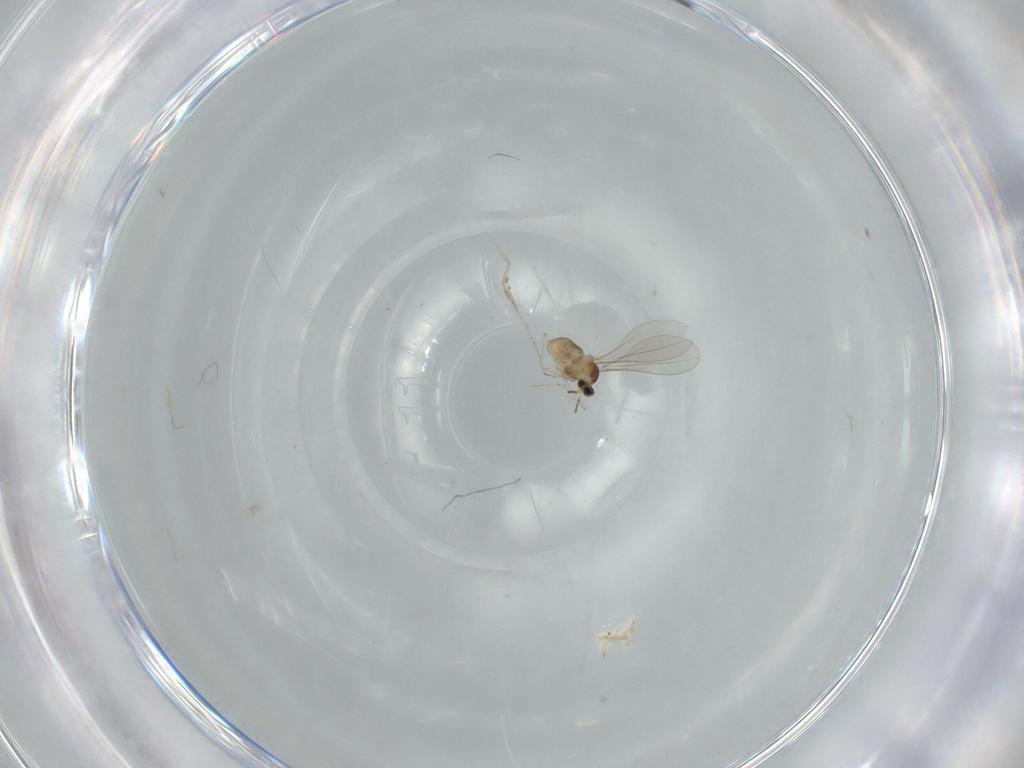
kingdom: Animalia
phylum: Arthropoda
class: Insecta
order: Diptera
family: Cecidomyiidae
